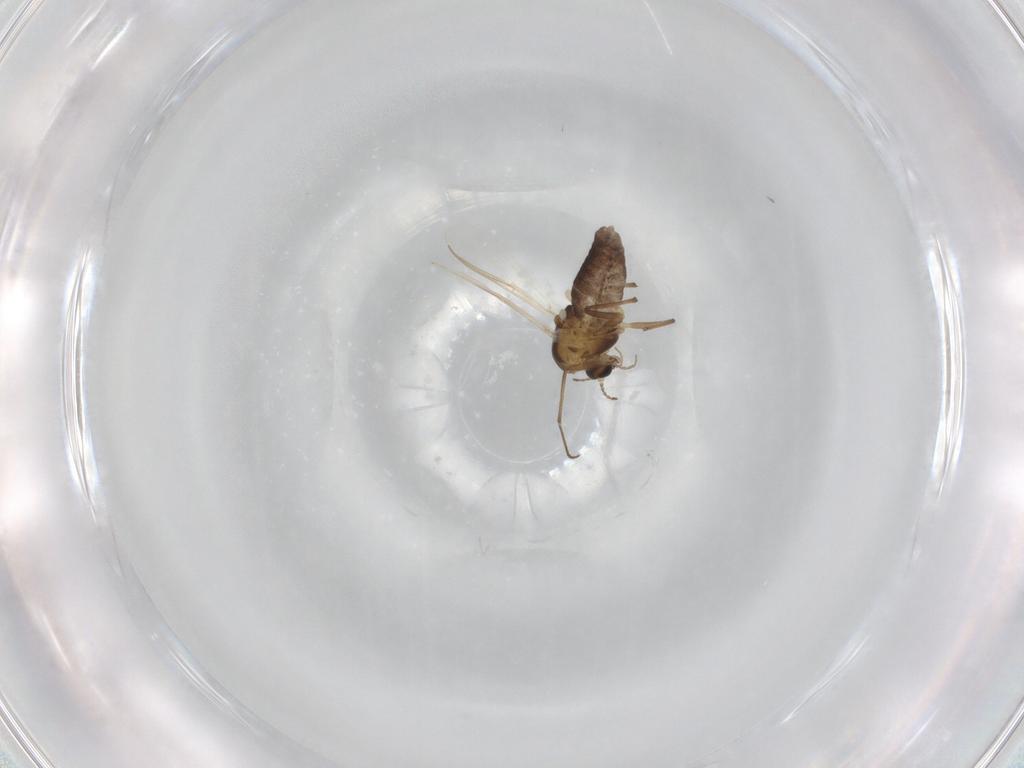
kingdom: Animalia
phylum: Arthropoda
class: Insecta
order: Diptera
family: Chironomidae
